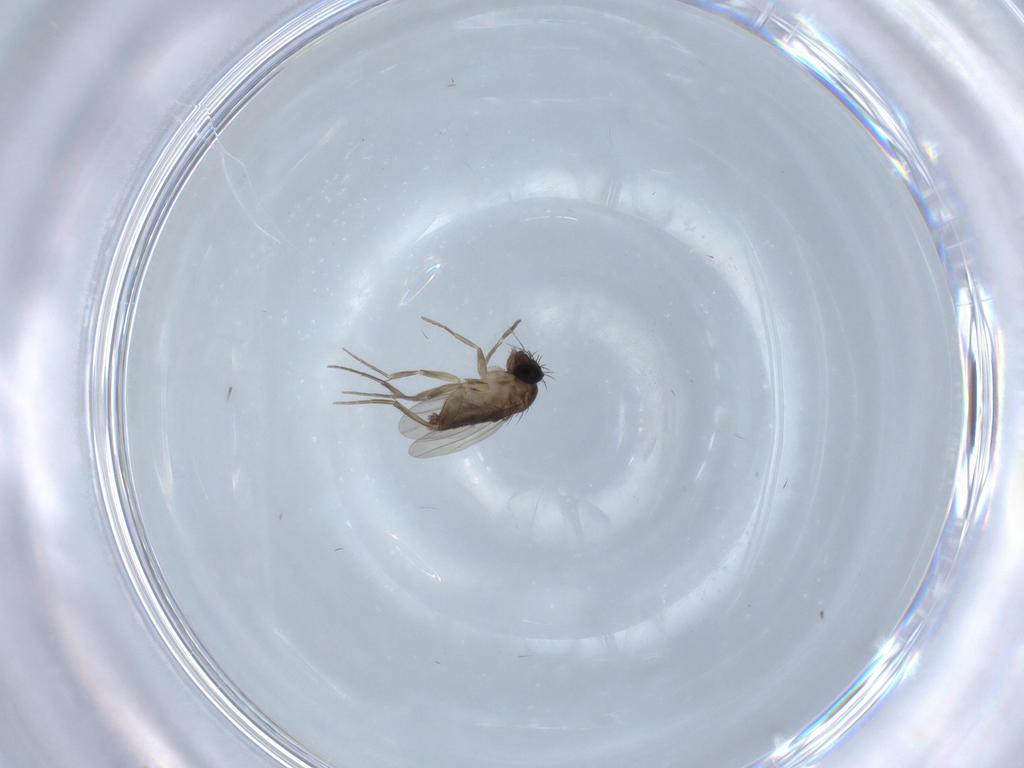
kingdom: Animalia
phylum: Arthropoda
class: Insecta
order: Diptera
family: Phoridae
